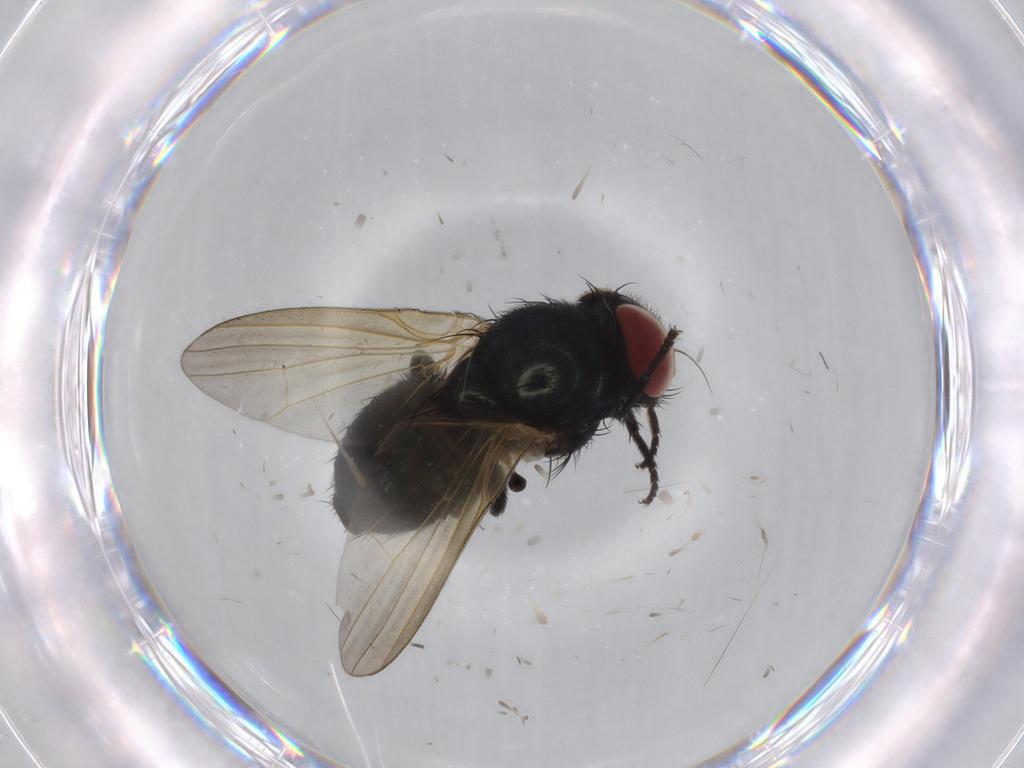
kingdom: Animalia
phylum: Arthropoda
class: Insecta
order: Diptera
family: Lonchaeidae
